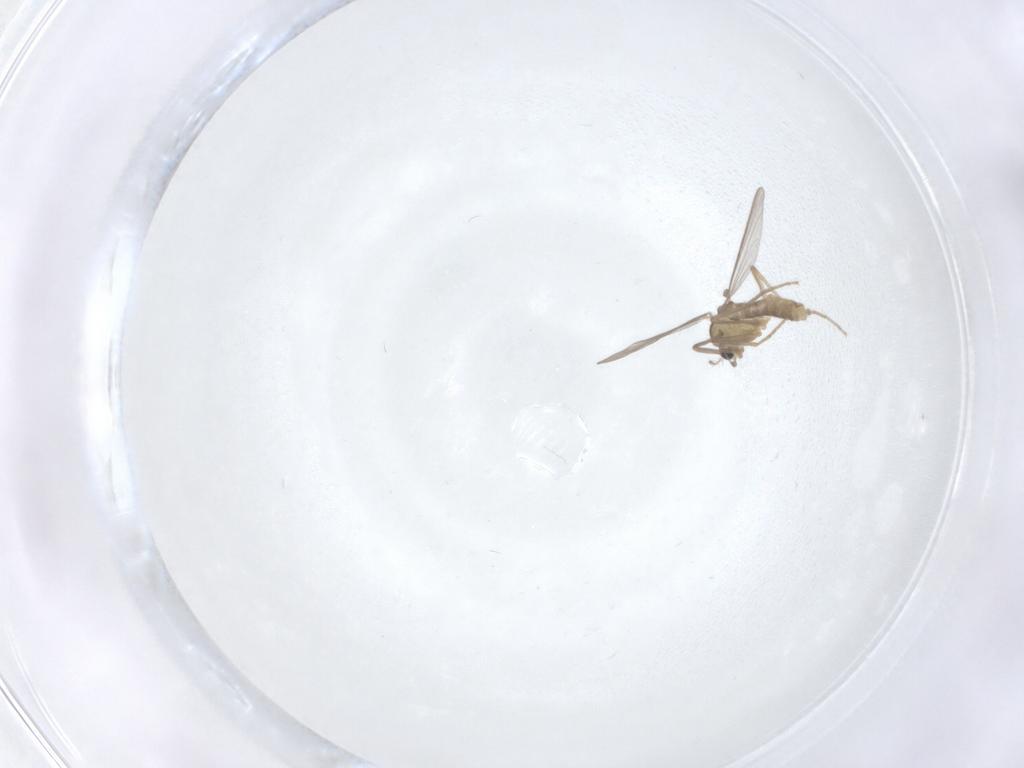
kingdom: Animalia
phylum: Arthropoda
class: Insecta
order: Diptera
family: Chironomidae
